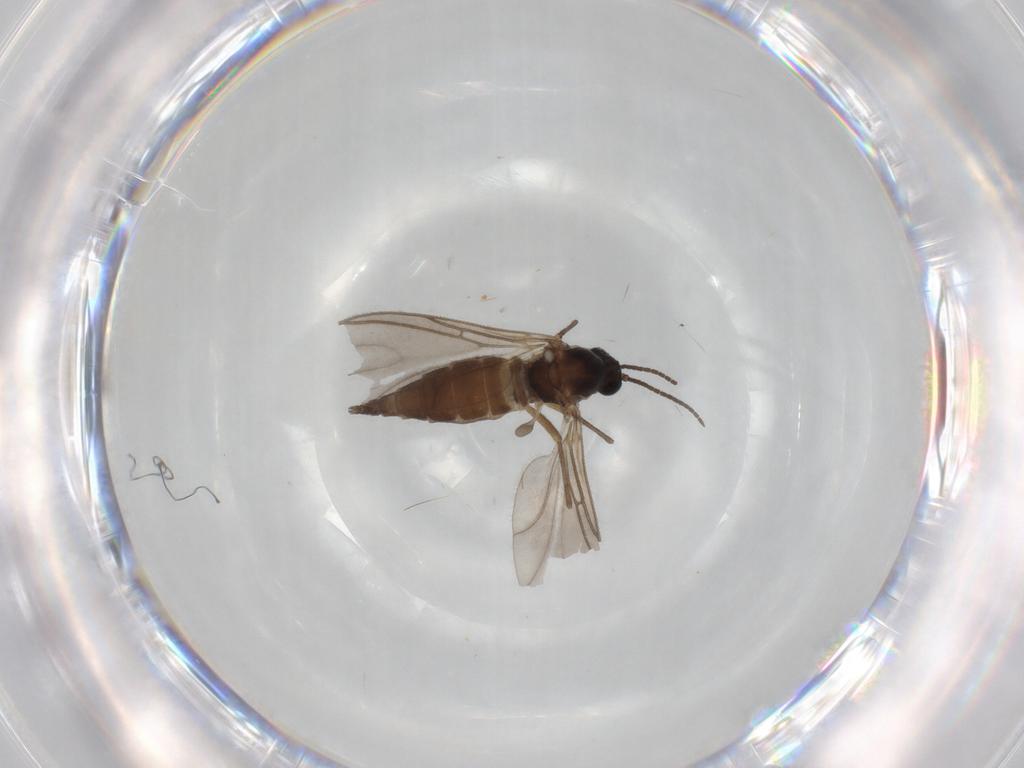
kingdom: Animalia
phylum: Arthropoda
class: Insecta
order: Diptera
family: Sciaridae
